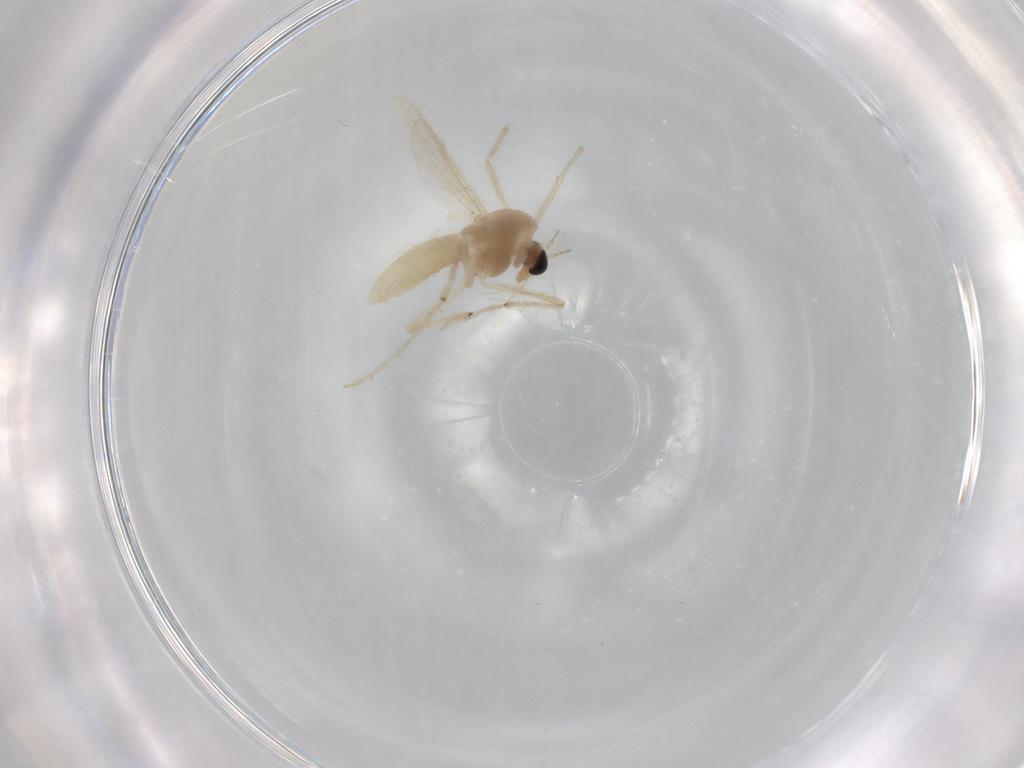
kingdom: Animalia
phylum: Arthropoda
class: Insecta
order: Diptera
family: Chironomidae
